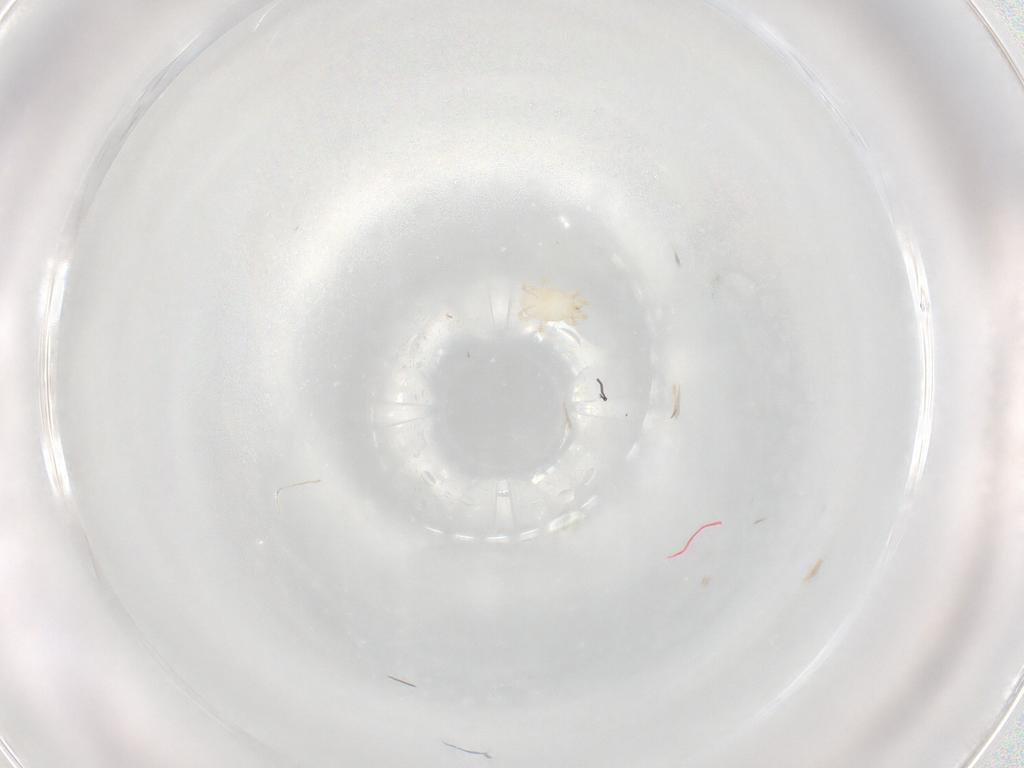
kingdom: Animalia
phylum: Arthropoda
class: Arachnida
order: Mesostigmata
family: Melicharidae
